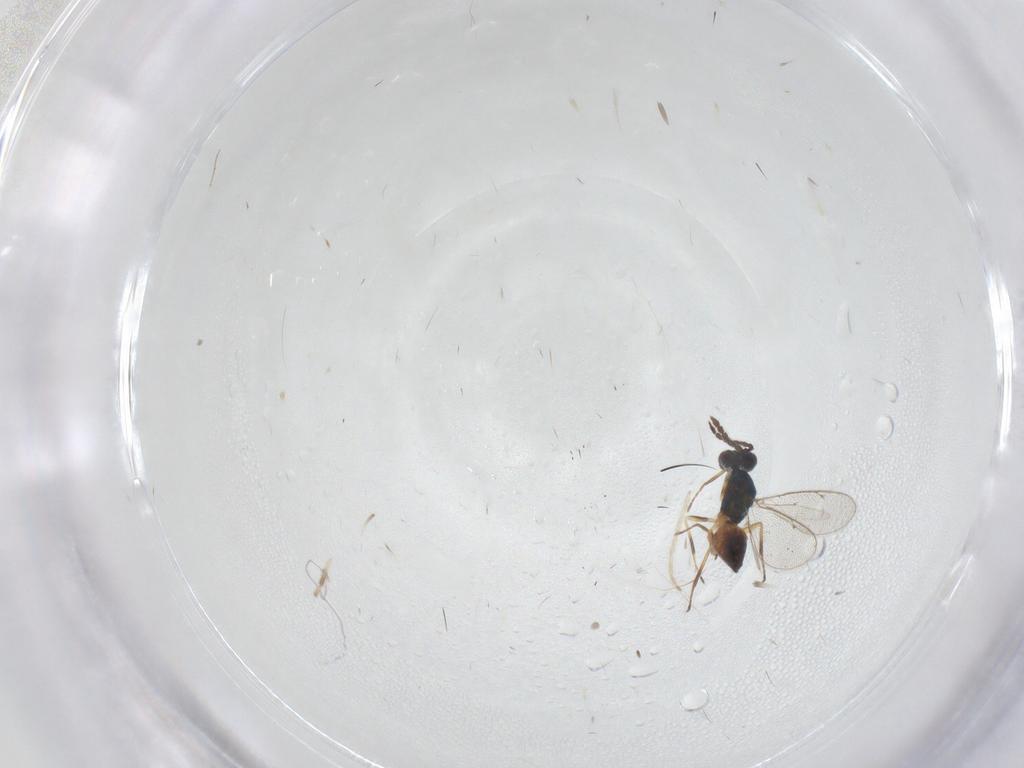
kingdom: Animalia
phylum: Arthropoda
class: Insecta
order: Hymenoptera
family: Eulophidae
